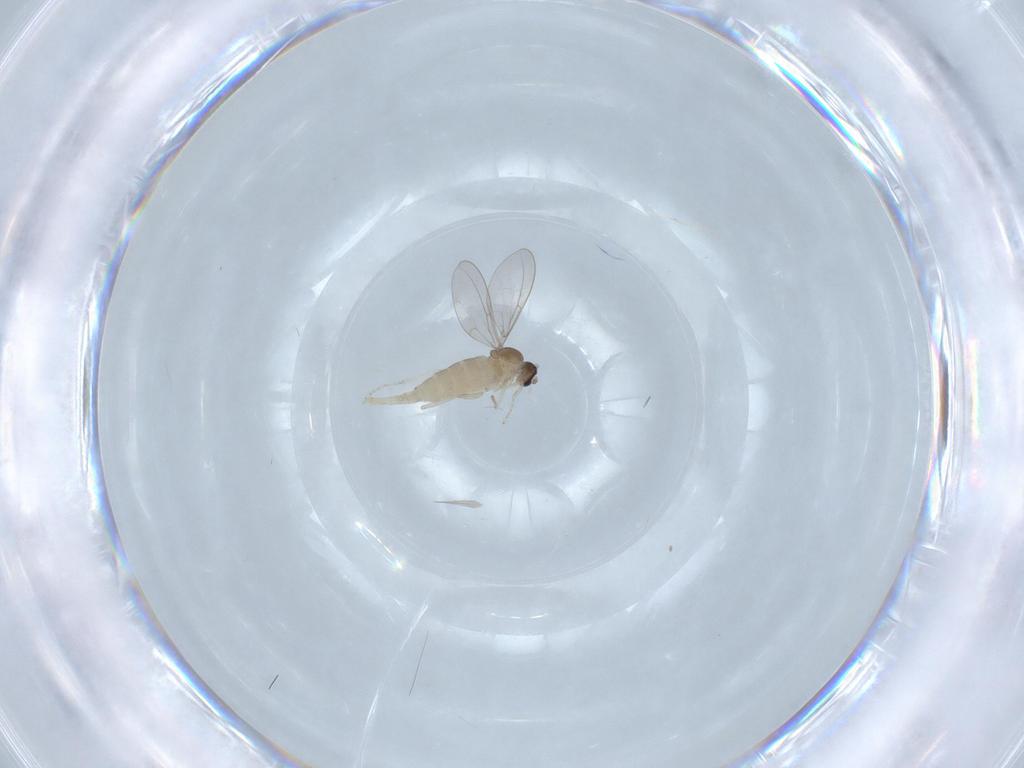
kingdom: Animalia
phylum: Arthropoda
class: Insecta
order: Diptera
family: Cecidomyiidae
